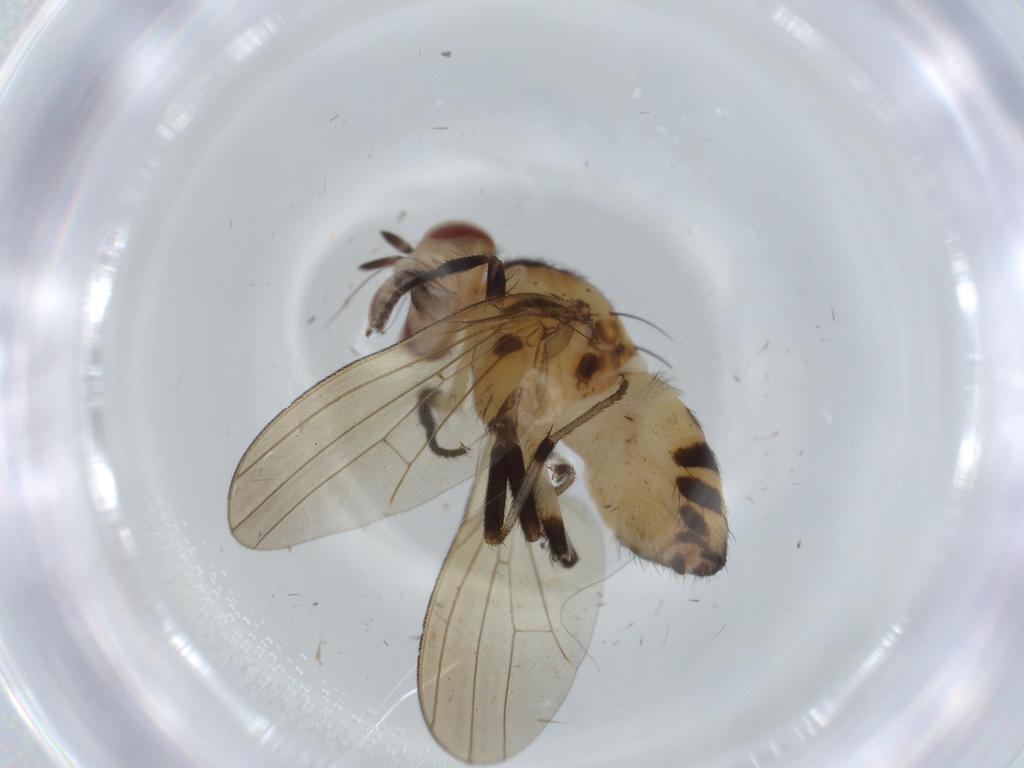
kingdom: Animalia
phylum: Arthropoda
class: Insecta
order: Diptera
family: Lauxaniidae
